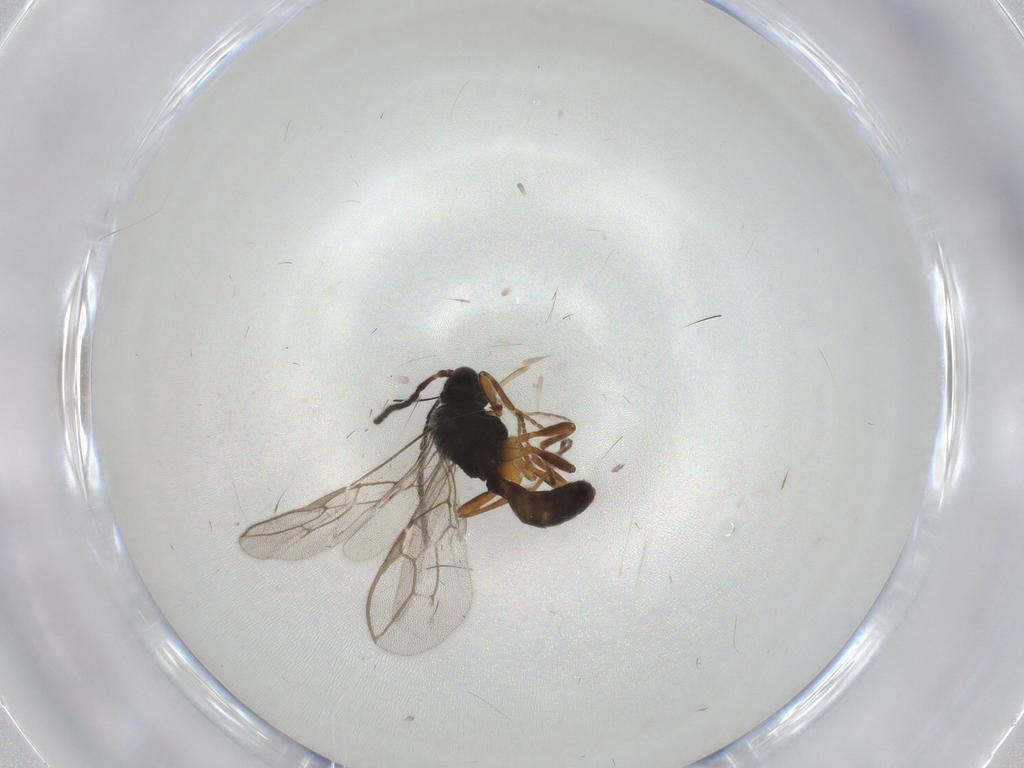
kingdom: Animalia
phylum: Arthropoda
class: Insecta
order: Hymenoptera
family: Braconidae
